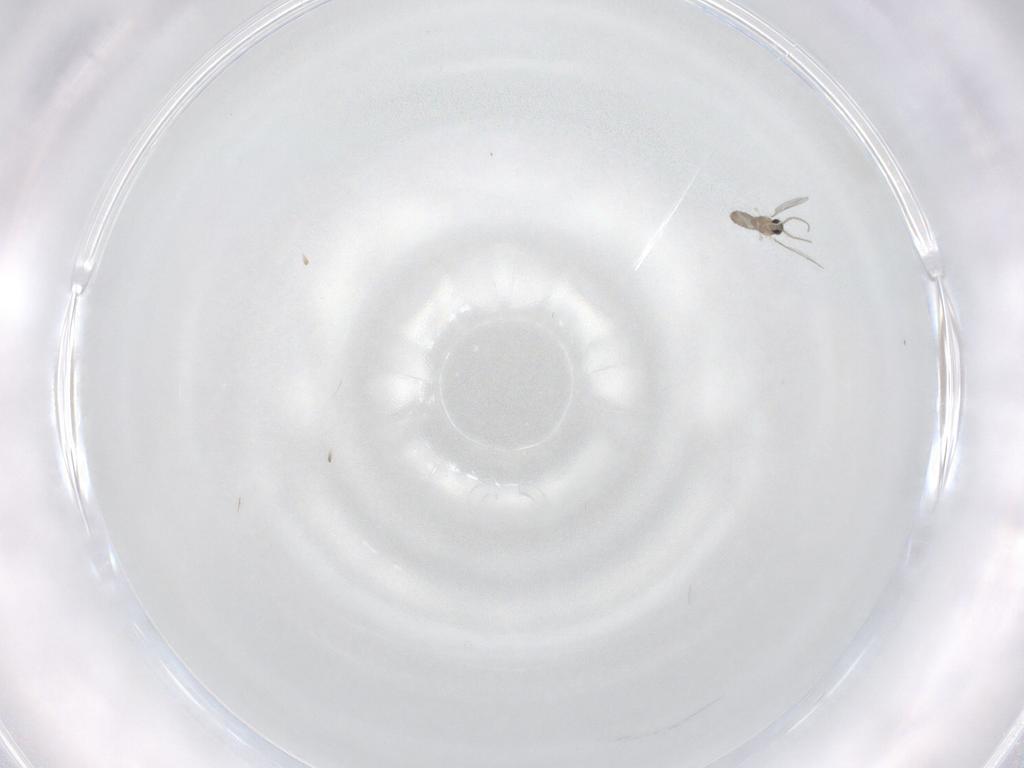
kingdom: Animalia
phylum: Arthropoda
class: Insecta
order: Diptera
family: Cecidomyiidae
